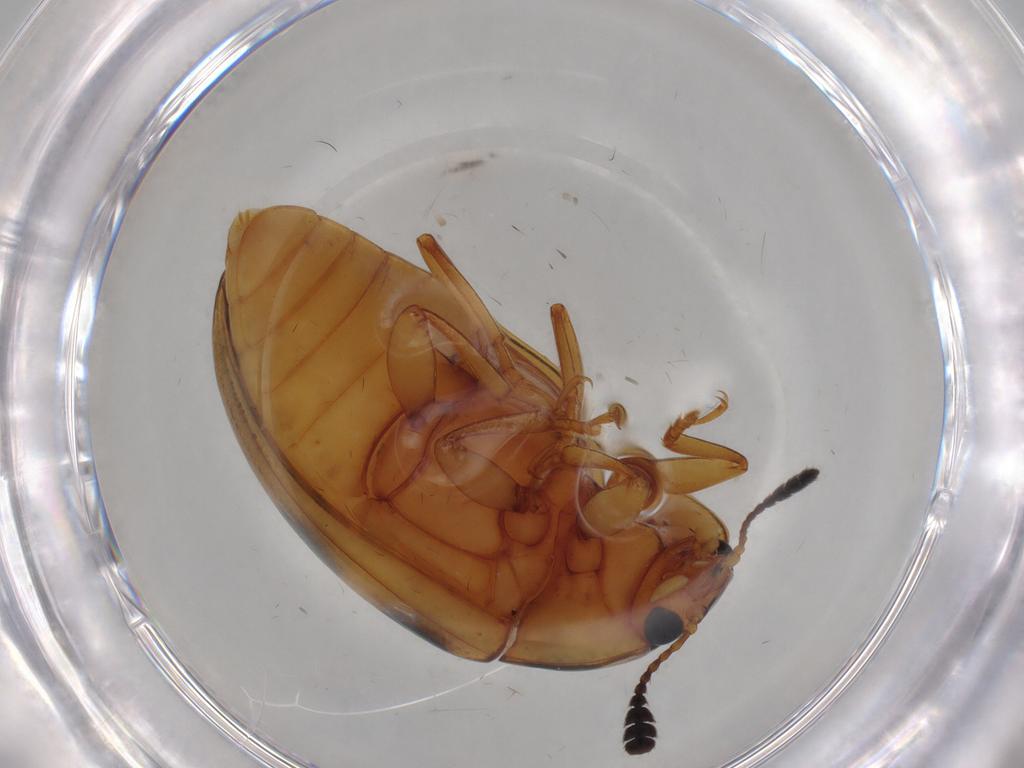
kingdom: Animalia
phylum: Arthropoda
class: Insecta
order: Coleoptera
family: Erotylidae
